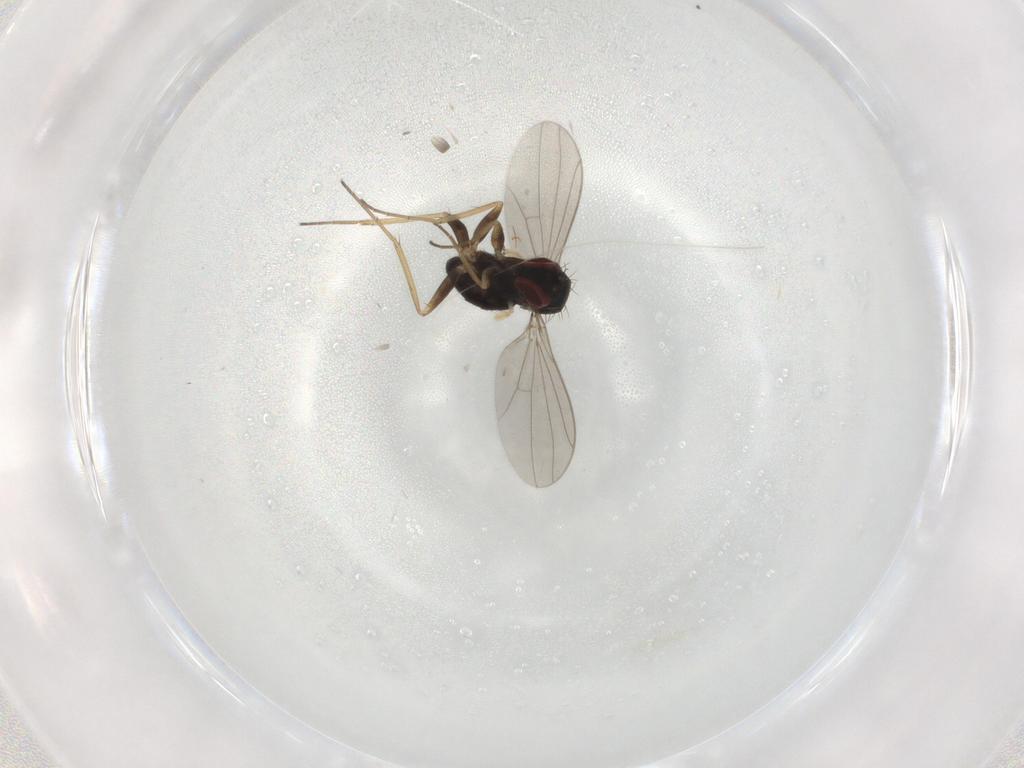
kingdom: Animalia
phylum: Arthropoda
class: Insecta
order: Diptera
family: Cecidomyiidae
